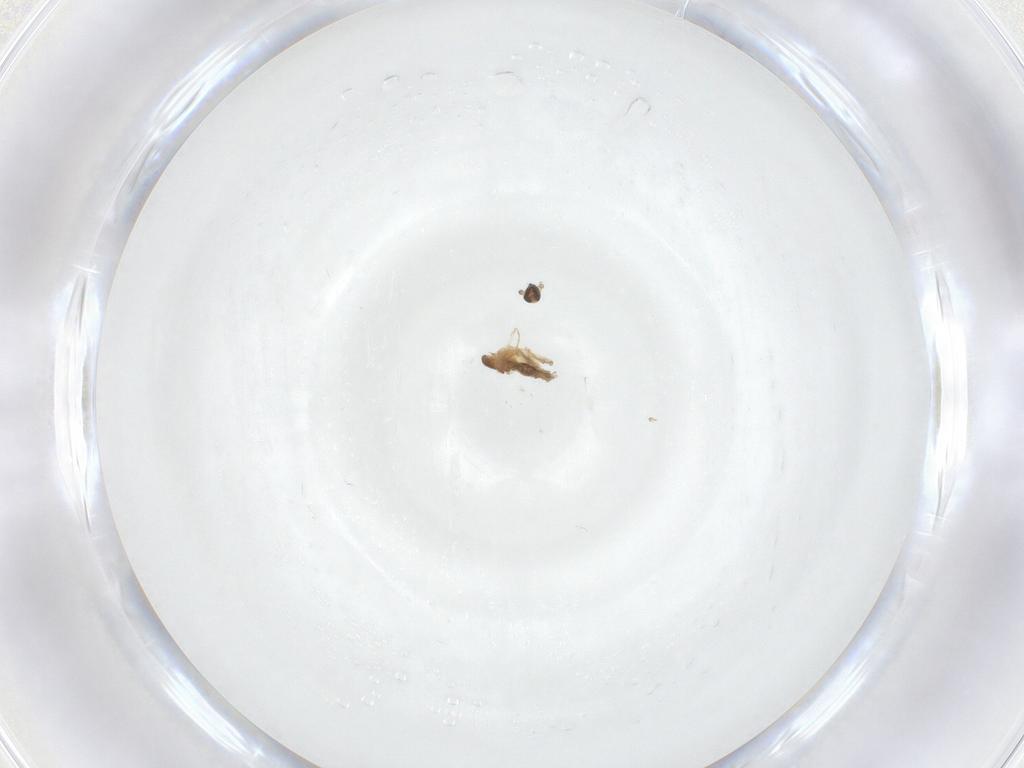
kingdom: Animalia
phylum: Arthropoda
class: Insecta
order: Diptera
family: Cecidomyiidae
